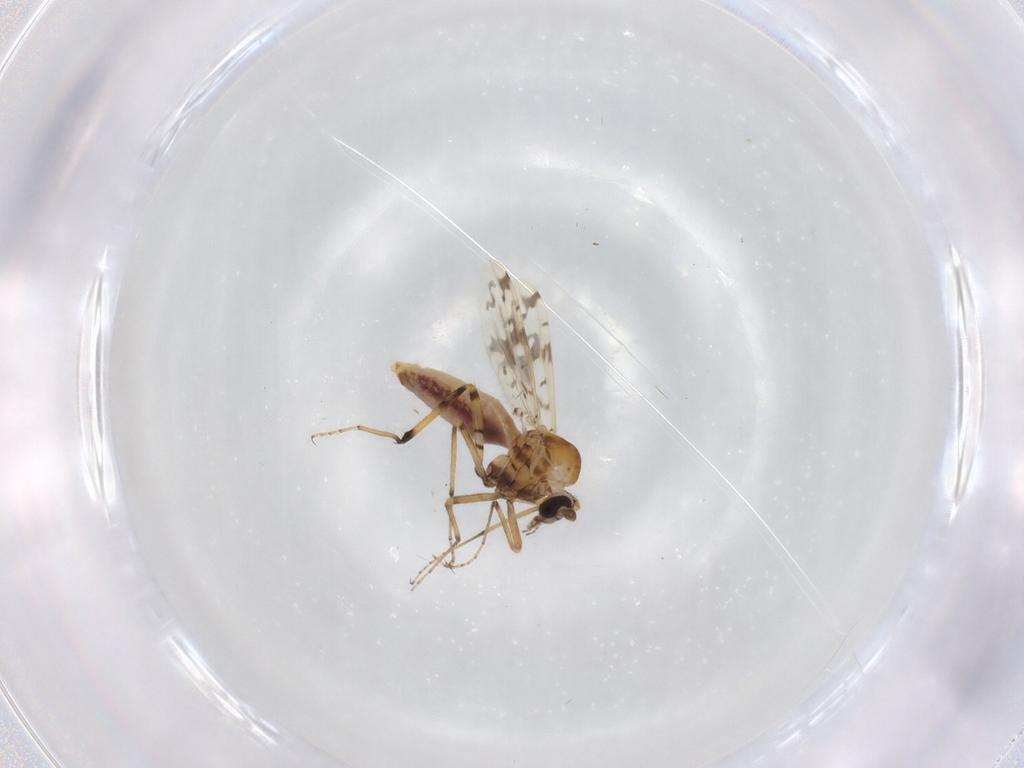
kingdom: Animalia
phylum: Arthropoda
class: Insecta
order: Diptera
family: Ceratopogonidae
